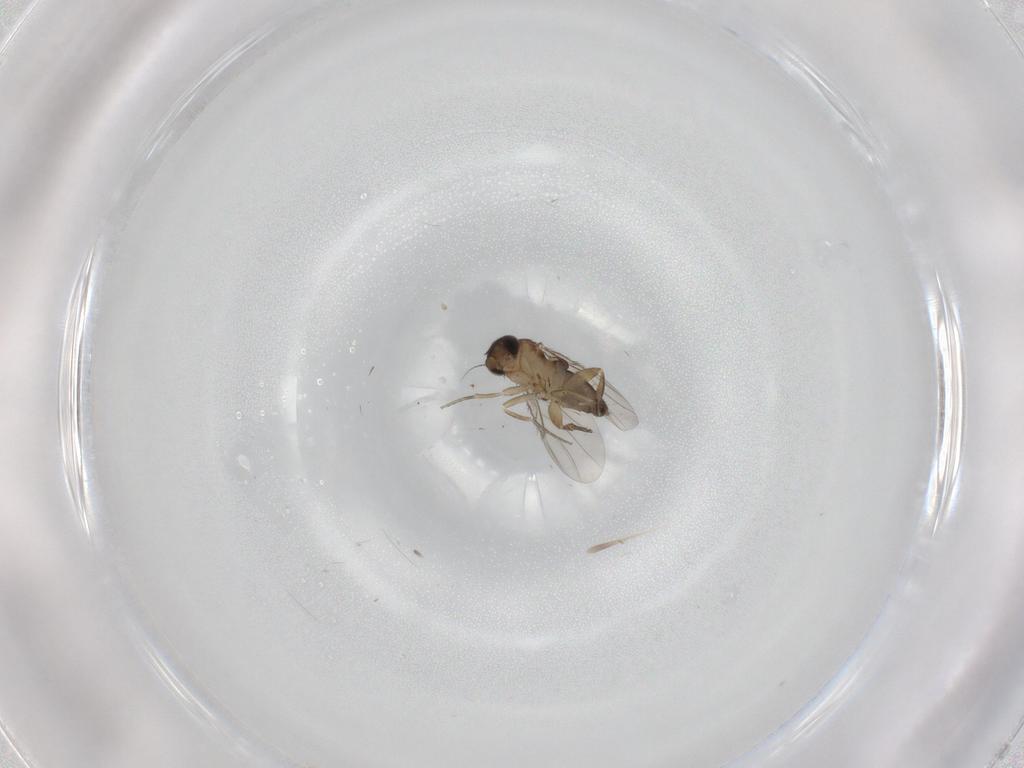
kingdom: Animalia
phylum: Arthropoda
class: Insecta
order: Diptera
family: Phoridae
